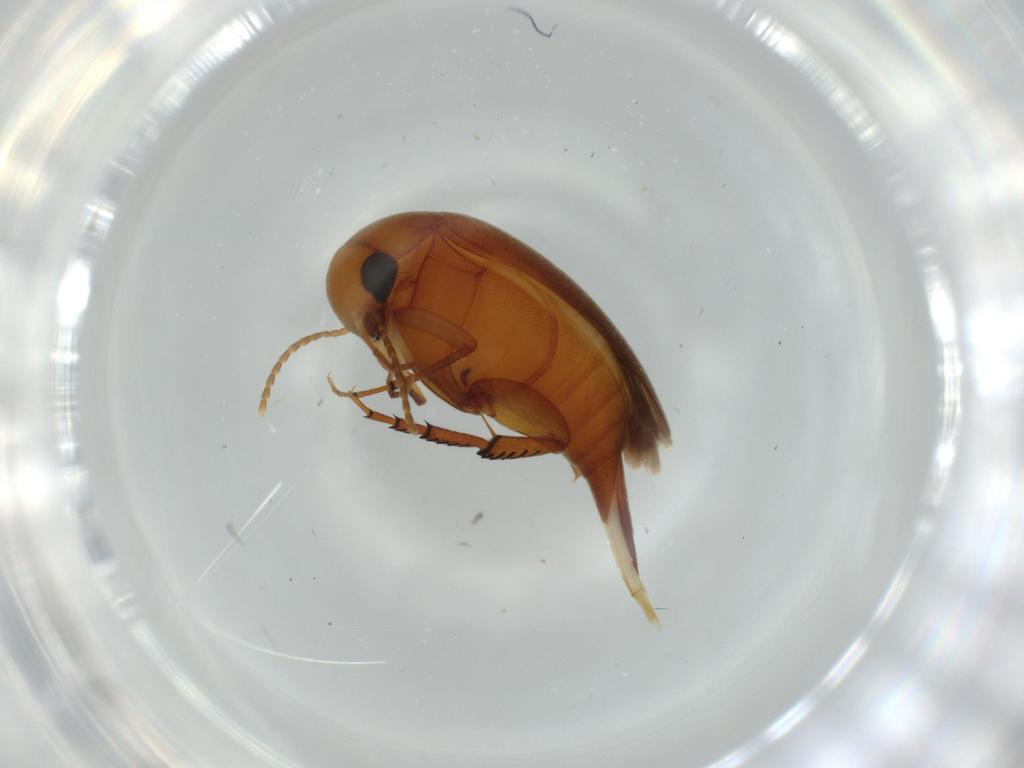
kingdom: Animalia
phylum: Arthropoda
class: Insecta
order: Coleoptera
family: Mordellidae
